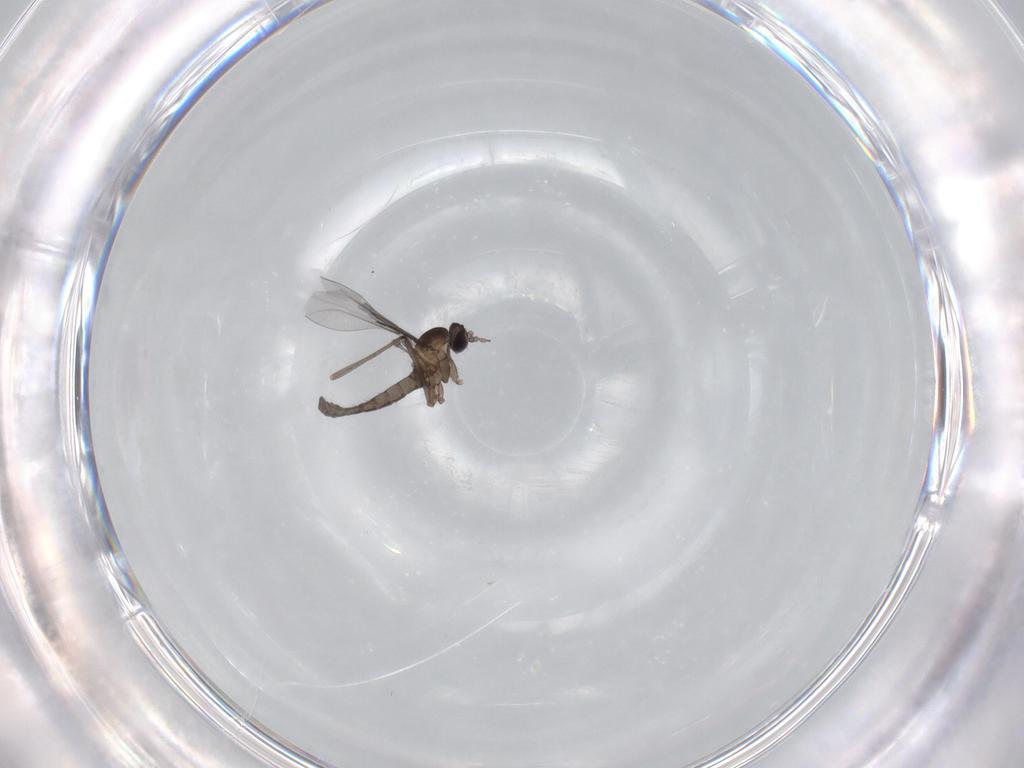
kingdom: Animalia
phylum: Arthropoda
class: Insecta
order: Diptera
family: Cecidomyiidae
